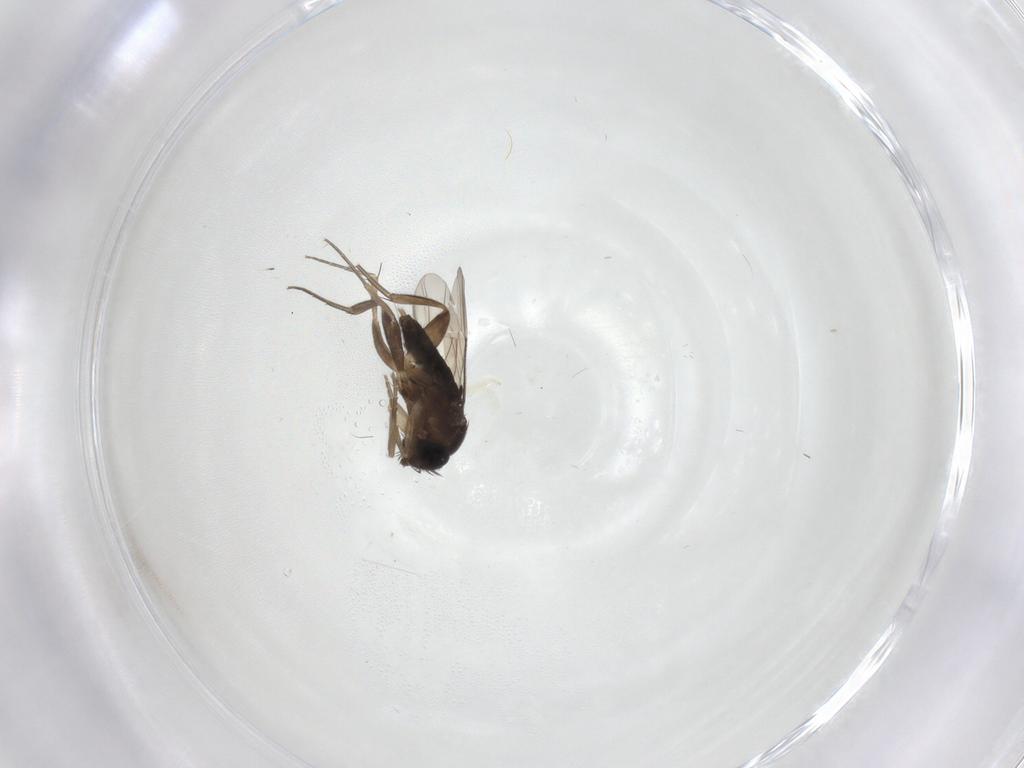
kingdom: Animalia
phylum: Arthropoda
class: Insecta
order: Diptera
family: Phoridae
